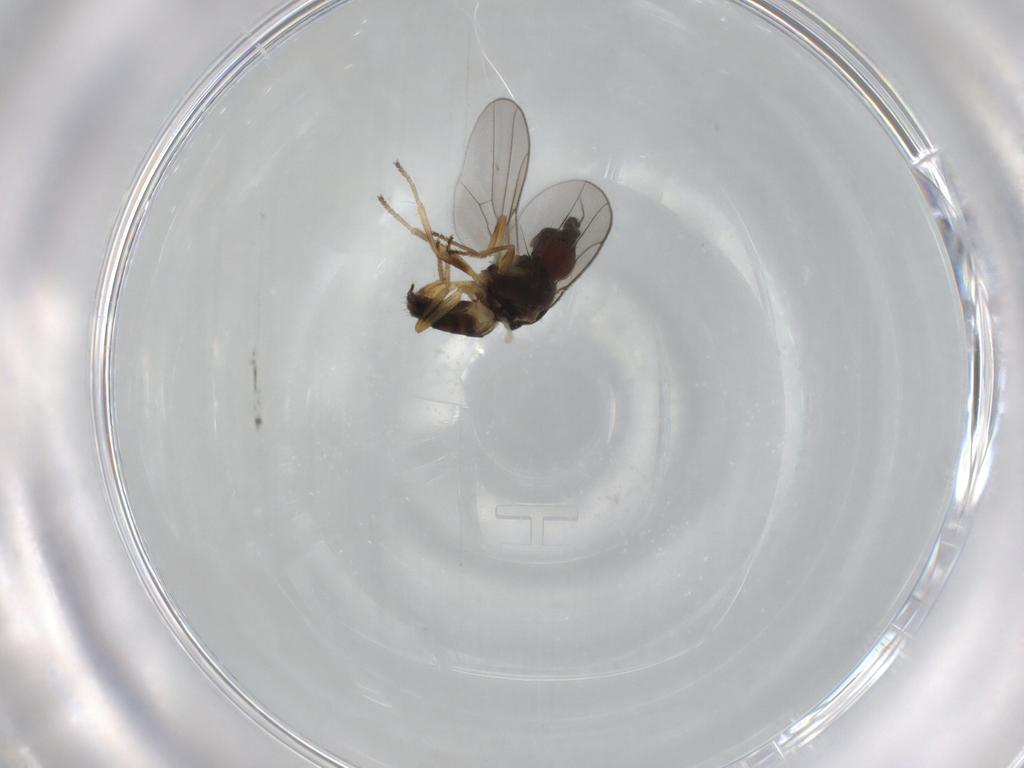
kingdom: Animalia
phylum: Arthropoda
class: Insecta
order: Diptera
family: Chloropidae
